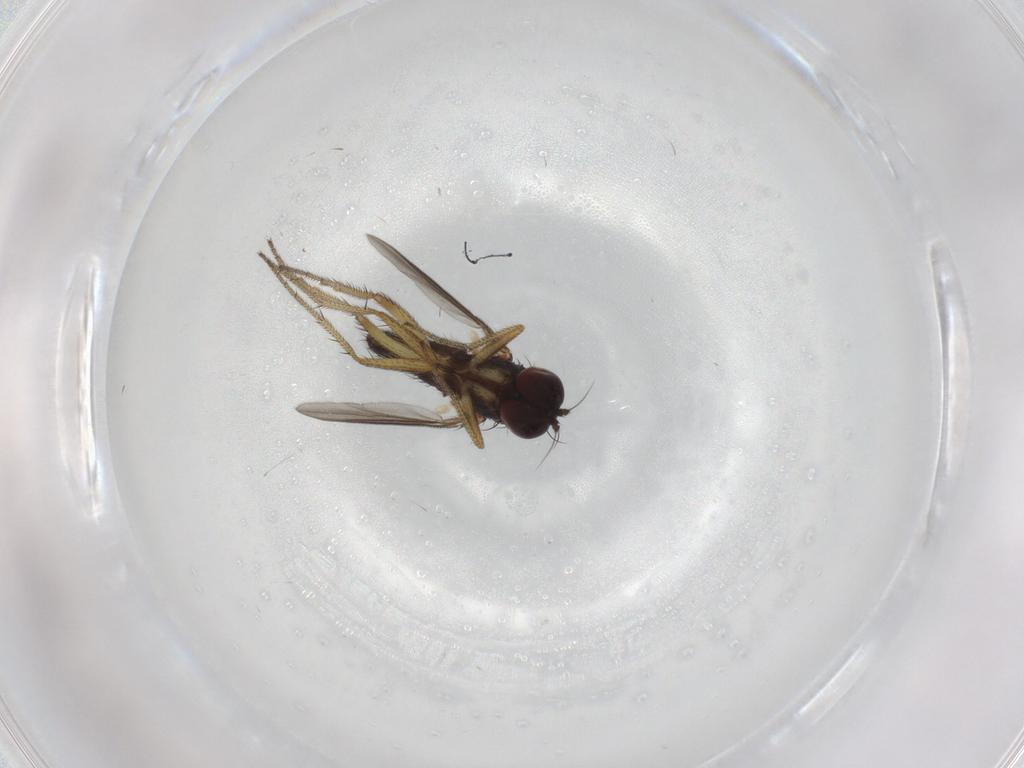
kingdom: Animalia
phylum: Arthropoda
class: Insecta
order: Diptera
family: Dolichopodidae
